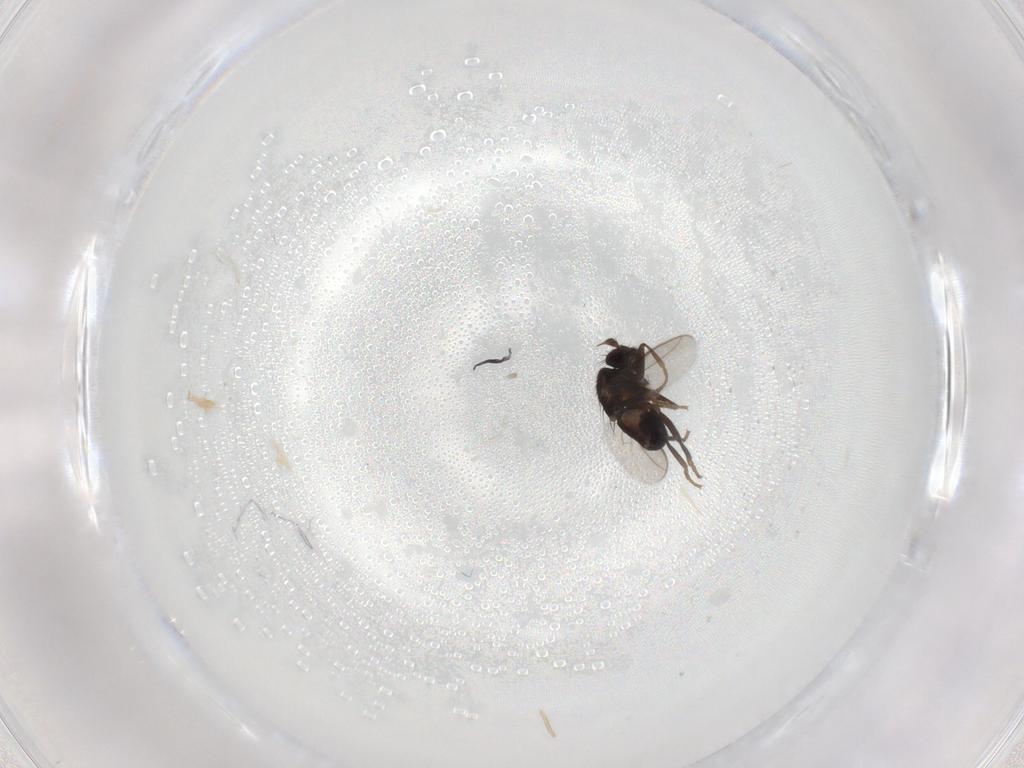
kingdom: Animalia
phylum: Arthropoda
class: Insecta
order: Diptera
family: Sphaeroceridae
